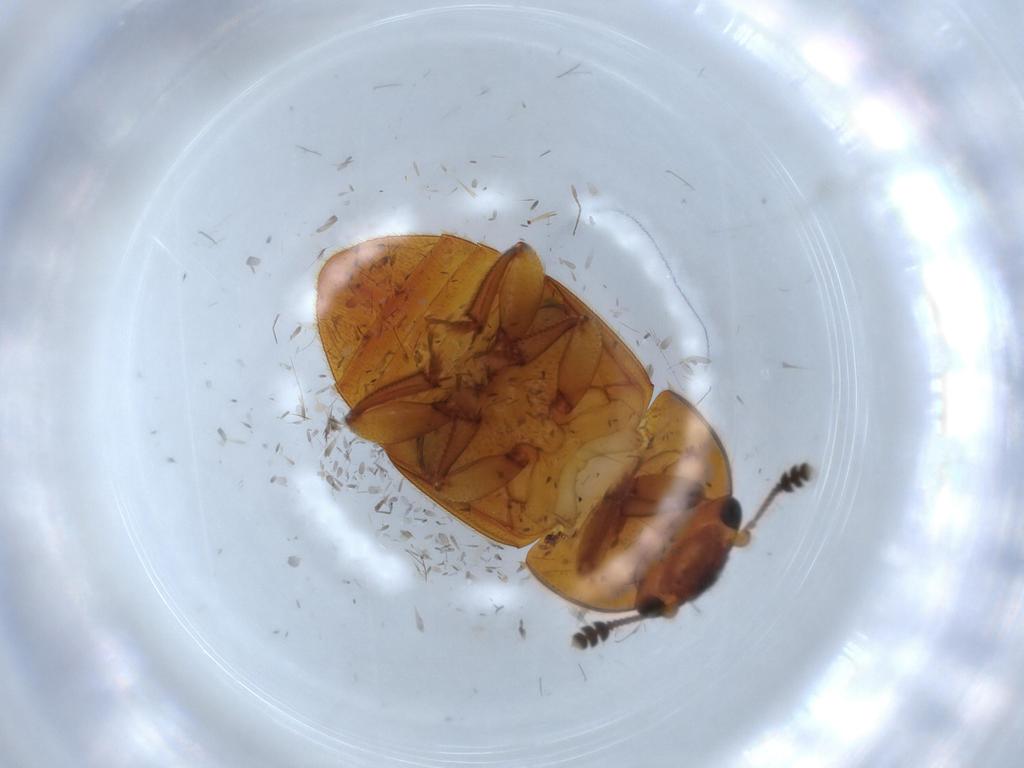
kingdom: Animalia
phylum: Arthropoda
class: Insecta
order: Coleoptera
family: Nitidulidae
